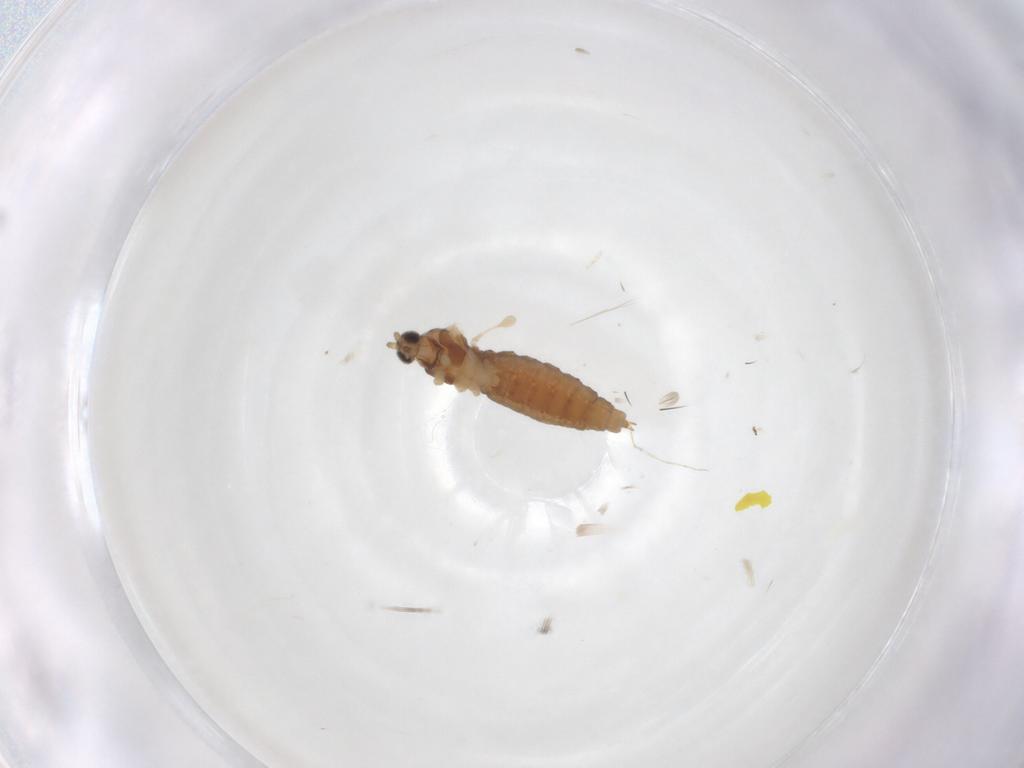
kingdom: Animalia
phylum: Arthropoda
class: Insecta
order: Diptera
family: Cecidomyiidae
